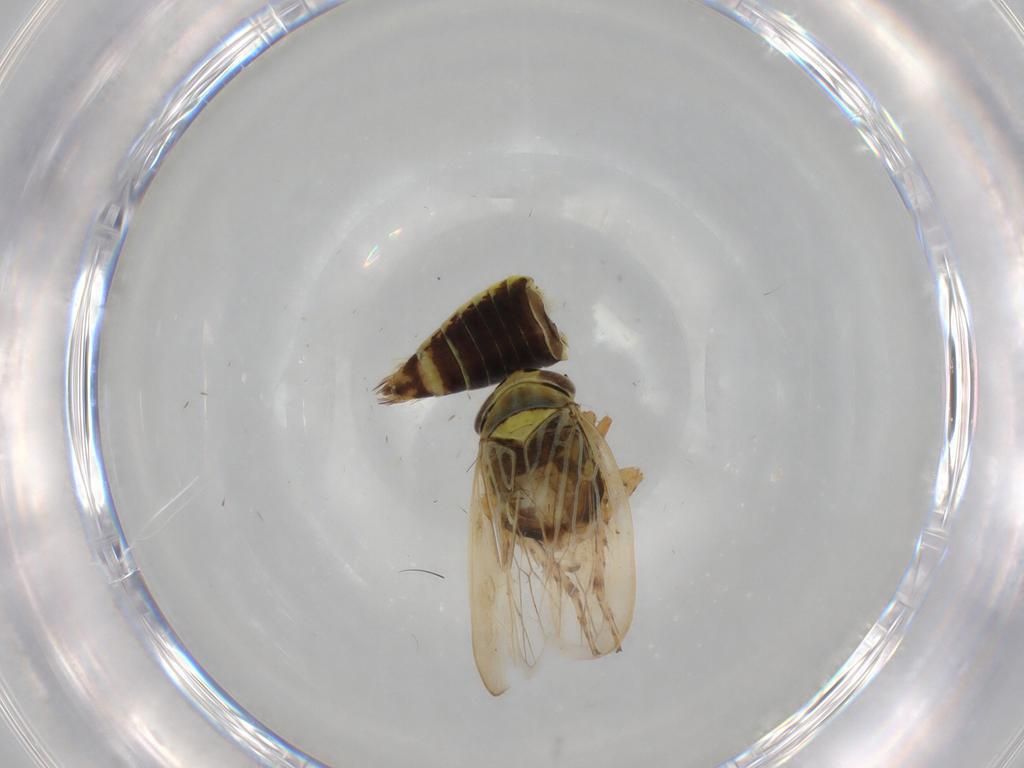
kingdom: Animalia
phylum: Arthropoda
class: Insecta
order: Hemiptera
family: Cicadellidae
